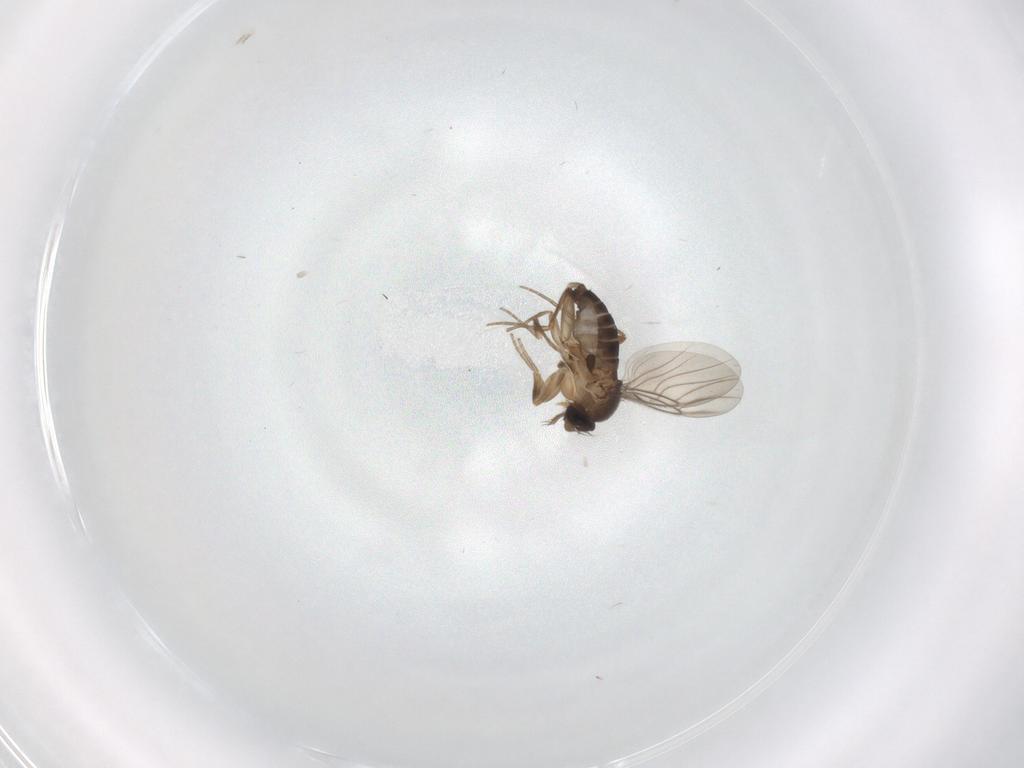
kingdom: Animalia
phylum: Arthropoda
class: Insecta
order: Diptera
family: Phoridae
